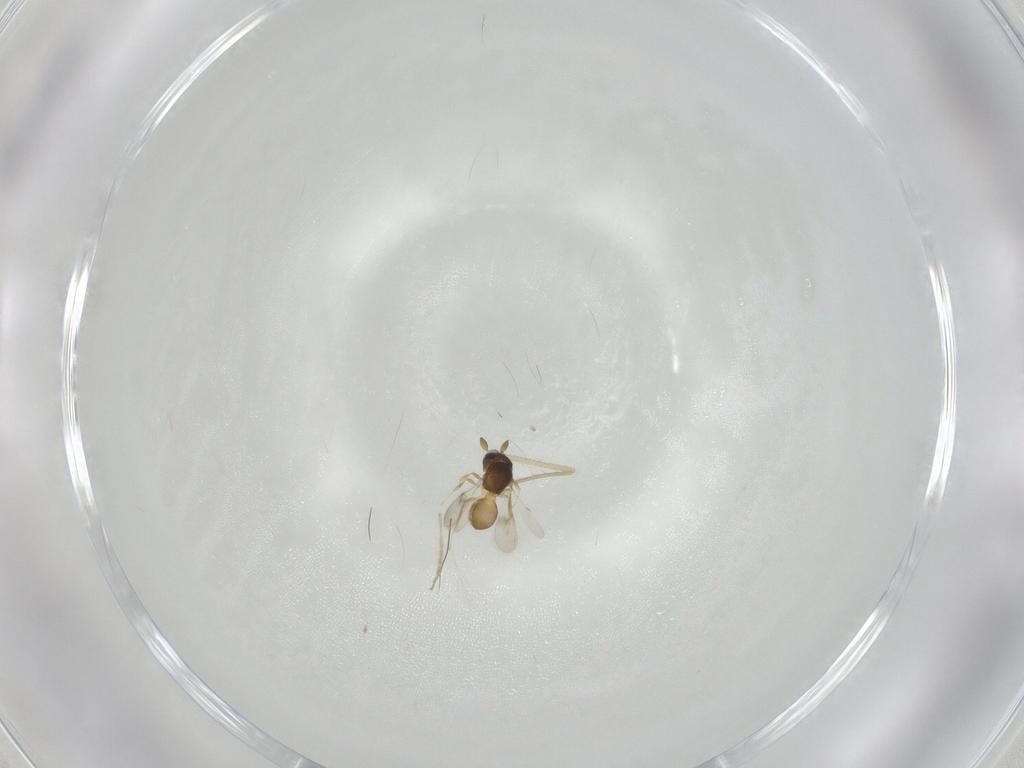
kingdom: Animalia
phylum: Arthropoda
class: Insecta
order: Hymenoptera
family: Scelionidae
